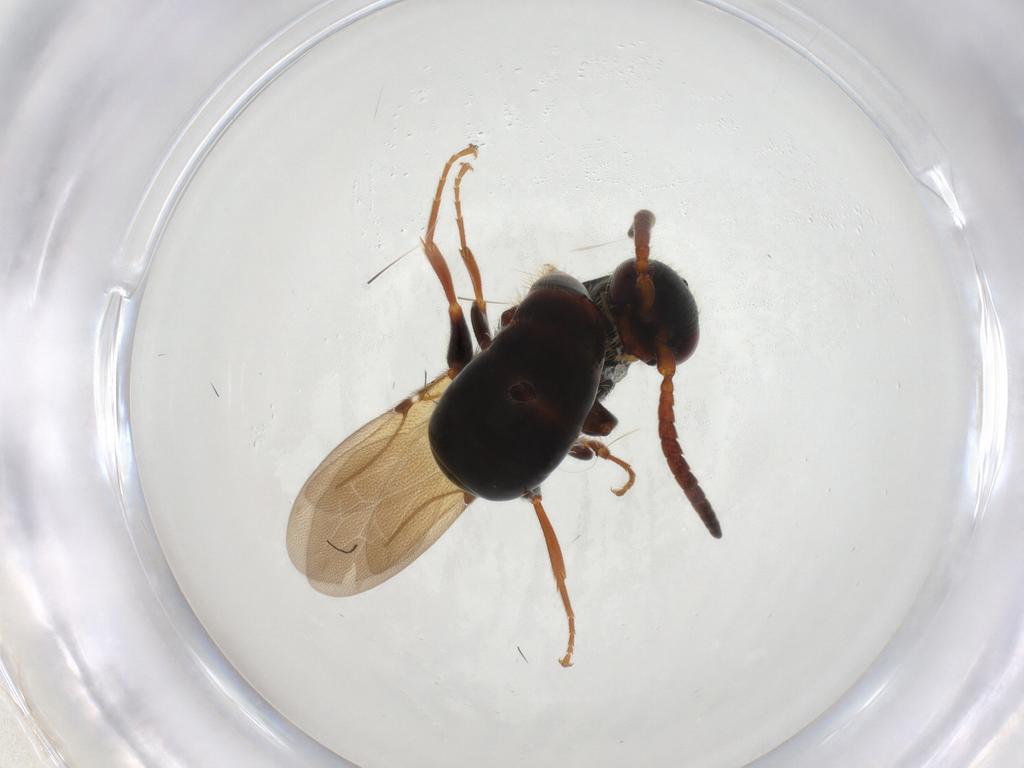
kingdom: Animalia
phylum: Arthropoda
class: Insecta
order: Hymenoptera
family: Bethylidae
